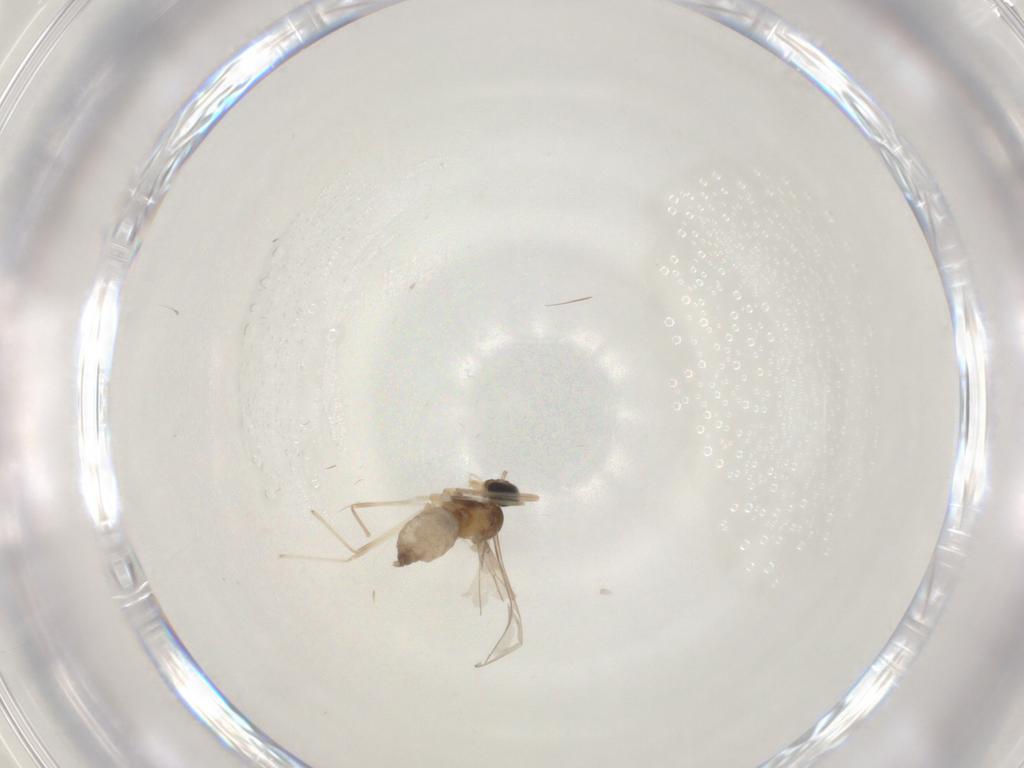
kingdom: Animalia
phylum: Arthropoda
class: Insecta
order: Diptera
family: Cecidomyiidae
